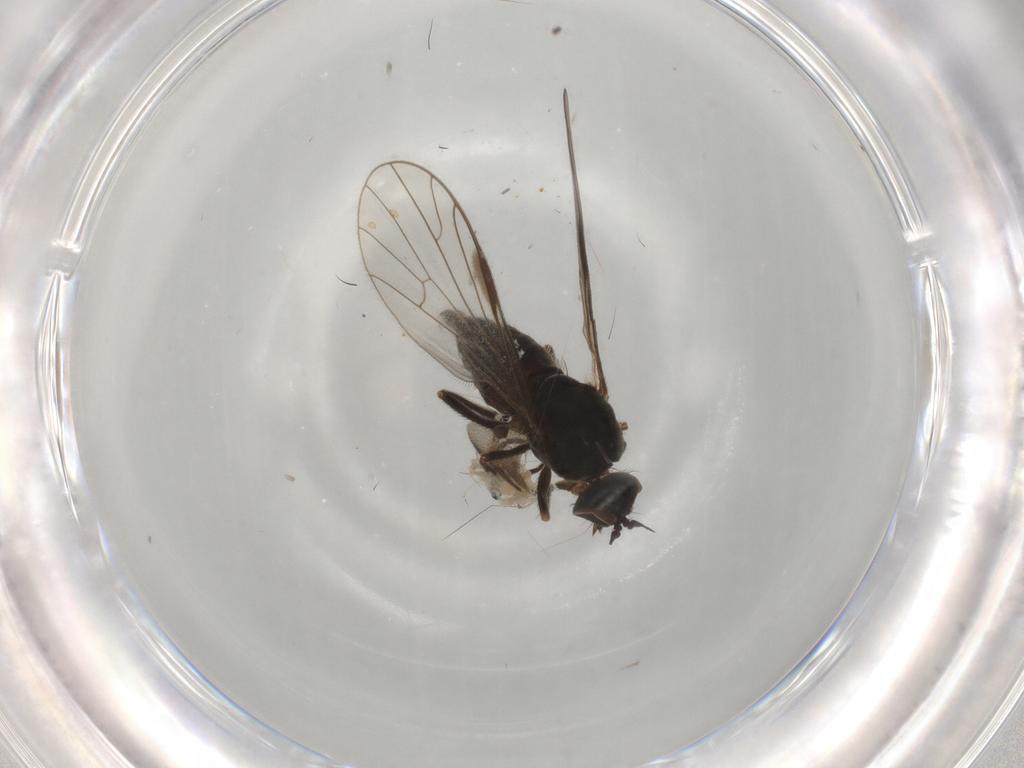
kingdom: Animalia
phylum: Arthropoda
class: Insecta
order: Diptera
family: Empididae
